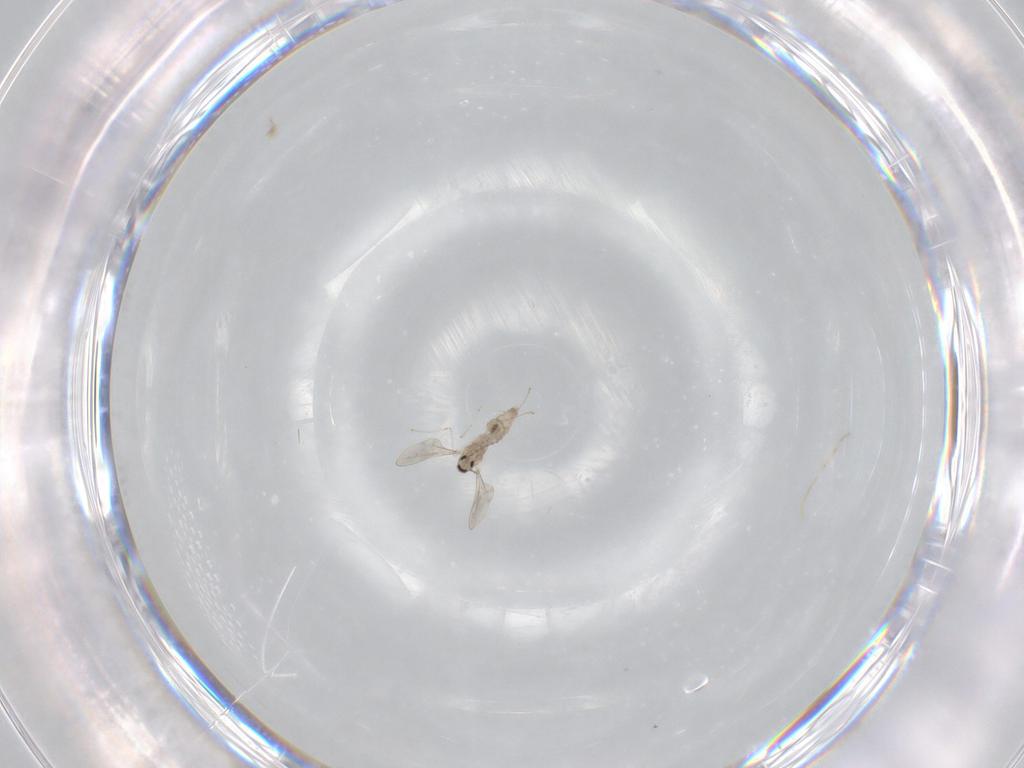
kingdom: Animalia
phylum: Arthropoda
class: Insecta
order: Diptera
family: Cecidomyiidae
